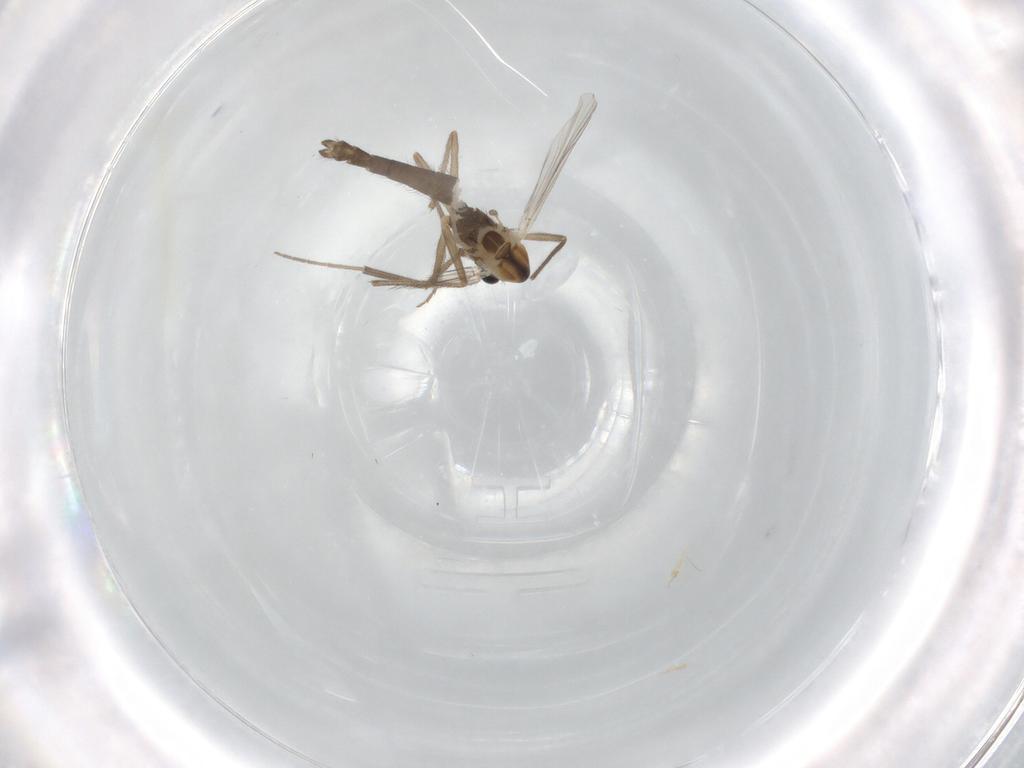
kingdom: Animalia
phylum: Arthropoda
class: Insecta
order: Diptera
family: Chironomidae
